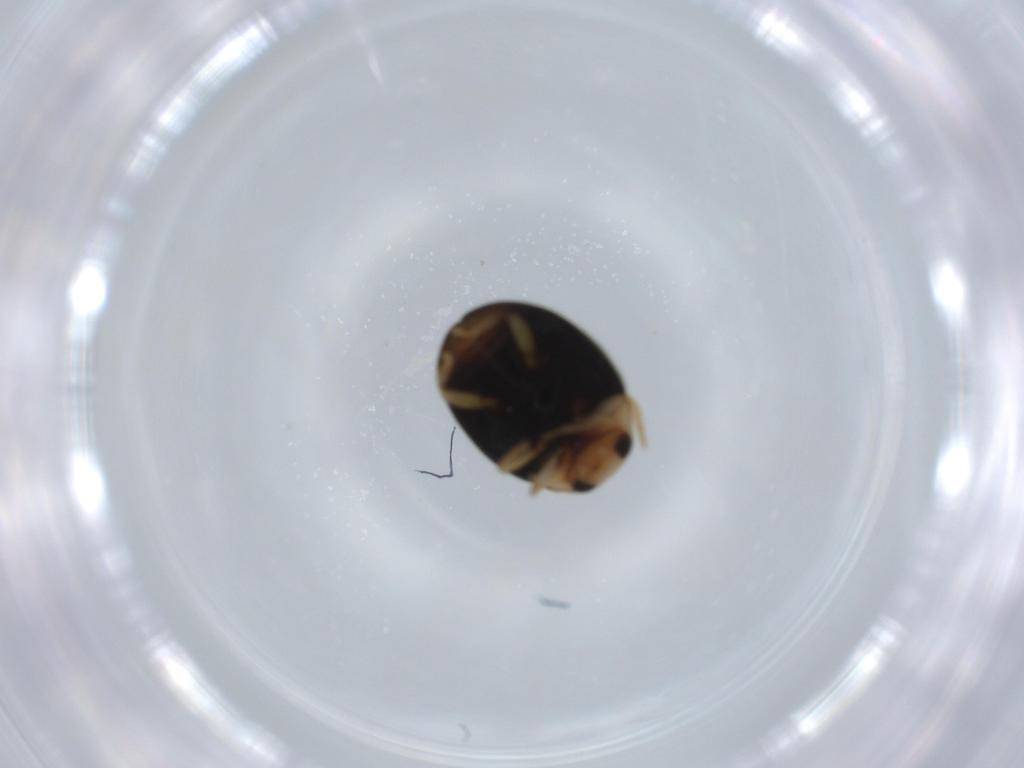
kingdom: Animalia
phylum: Arthropoda
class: Insecta
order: Coleoptera
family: Coccinellidae
